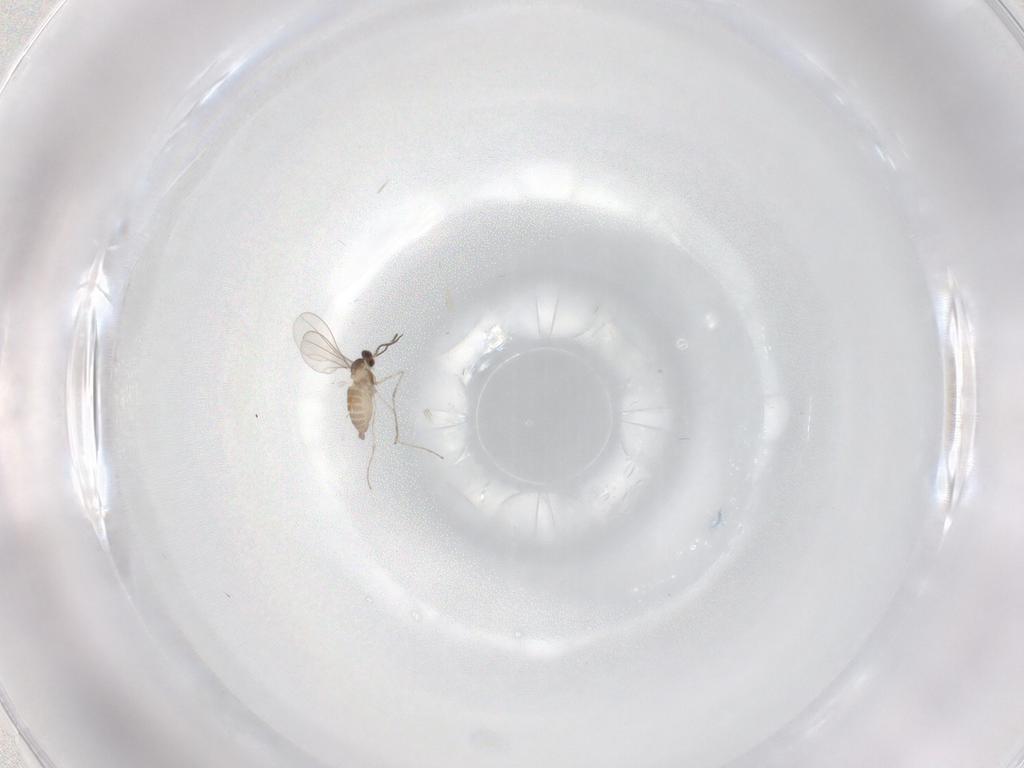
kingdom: Animalia
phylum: Arthropoda
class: Insecta
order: Diptera
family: Cecidomyiidae
